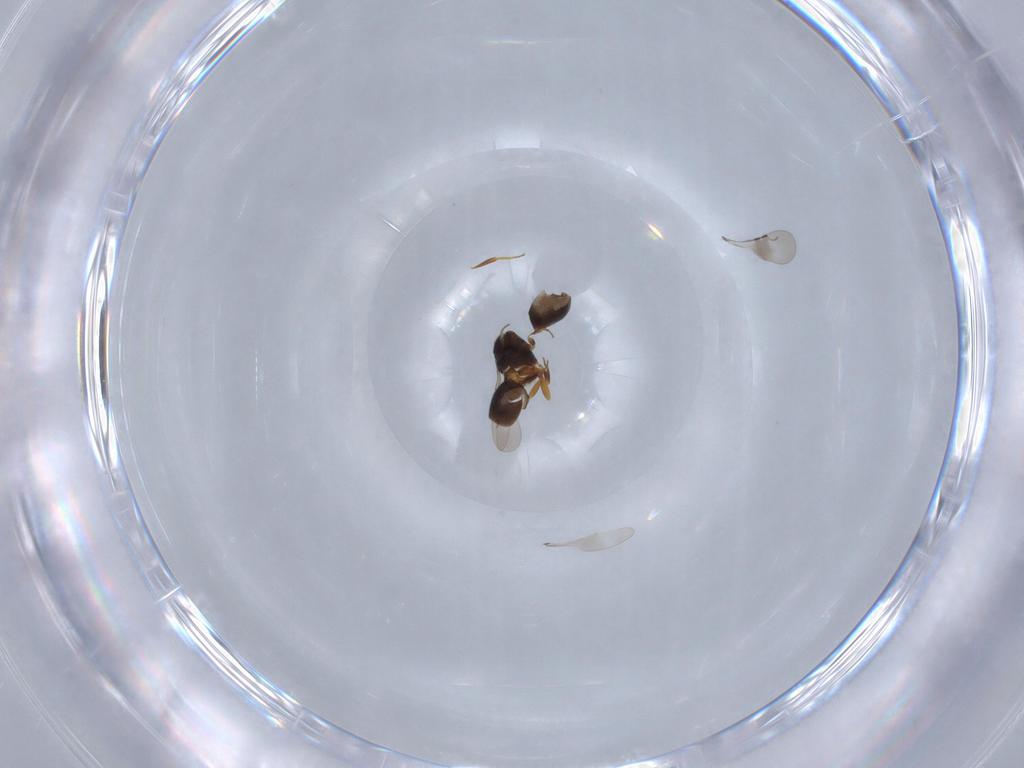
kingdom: Animalia
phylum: Arthropoda
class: Insecta
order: Hymenoptera
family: Ceraphronidae
